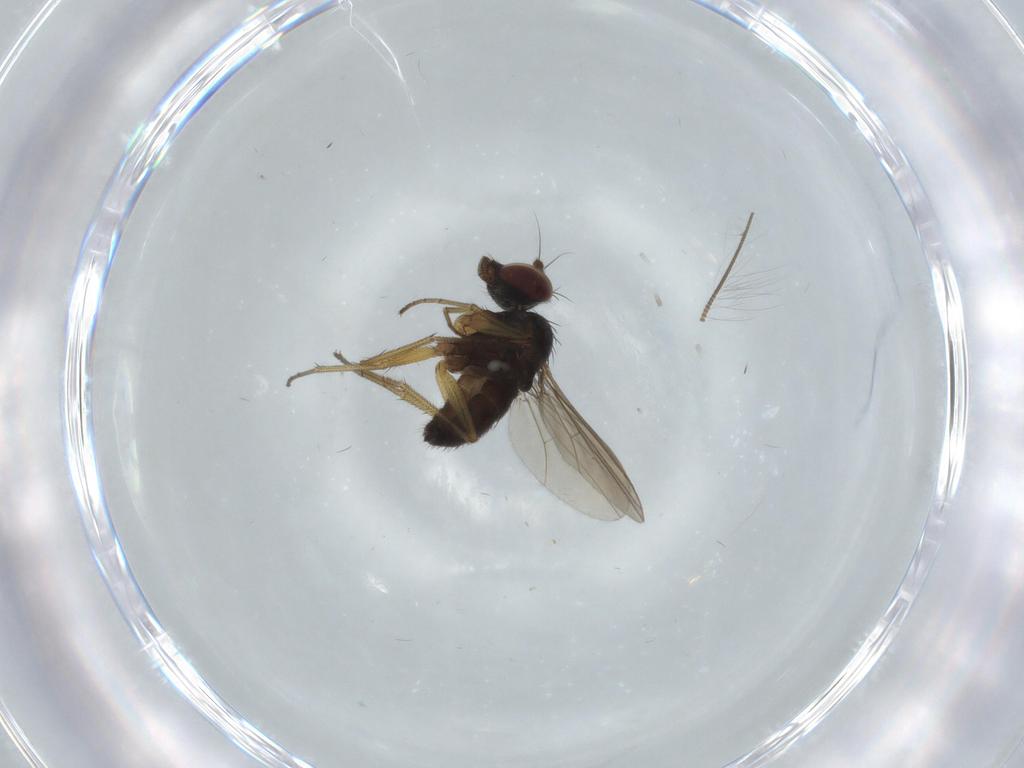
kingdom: Animalia
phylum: Arthropoda
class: Insecta
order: Diptera
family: Dolichopodidae
